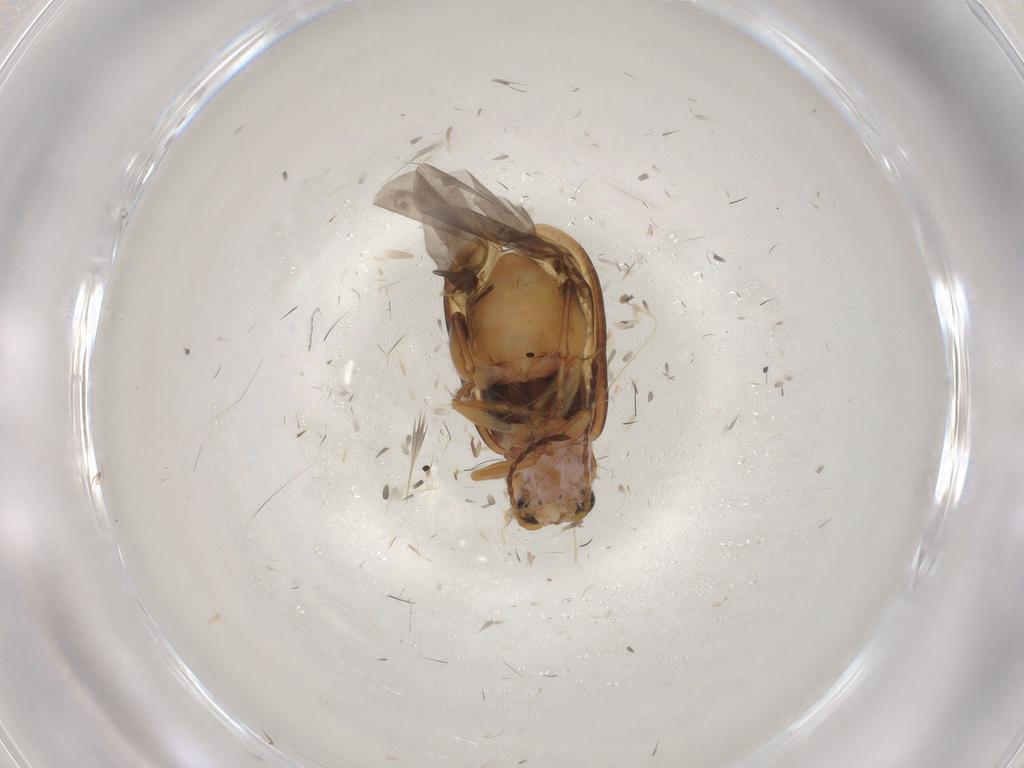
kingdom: Animalia
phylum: Arthropoda
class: Insecta
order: Coleoptera
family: Chrysomelidae
